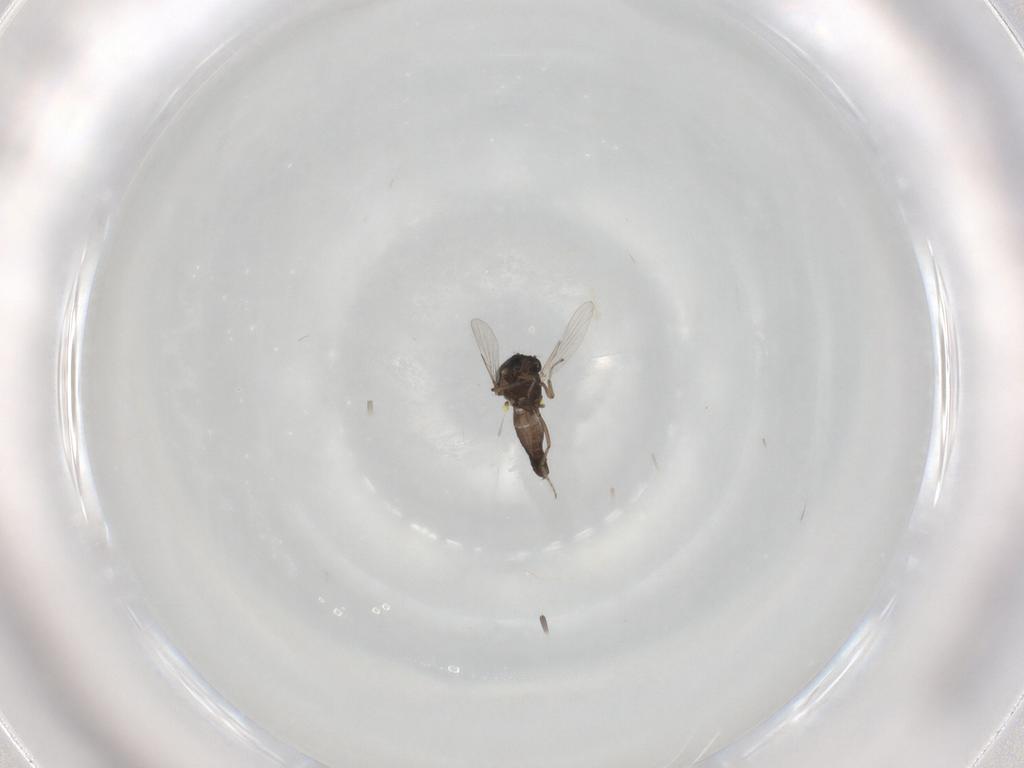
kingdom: Animalia
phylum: Arthropoda
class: Insecta
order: Diptera
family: Ceratopogonidae
